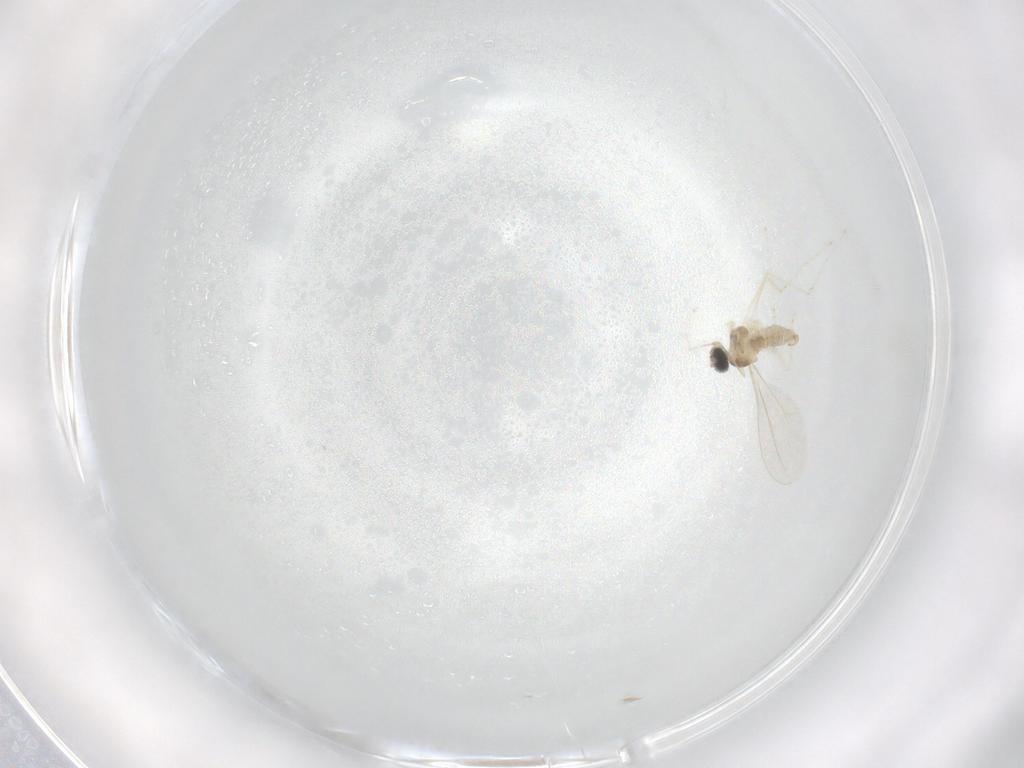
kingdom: Animalia
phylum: Arthropoda
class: Insecta
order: Diptera
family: Cecidomyiidae
